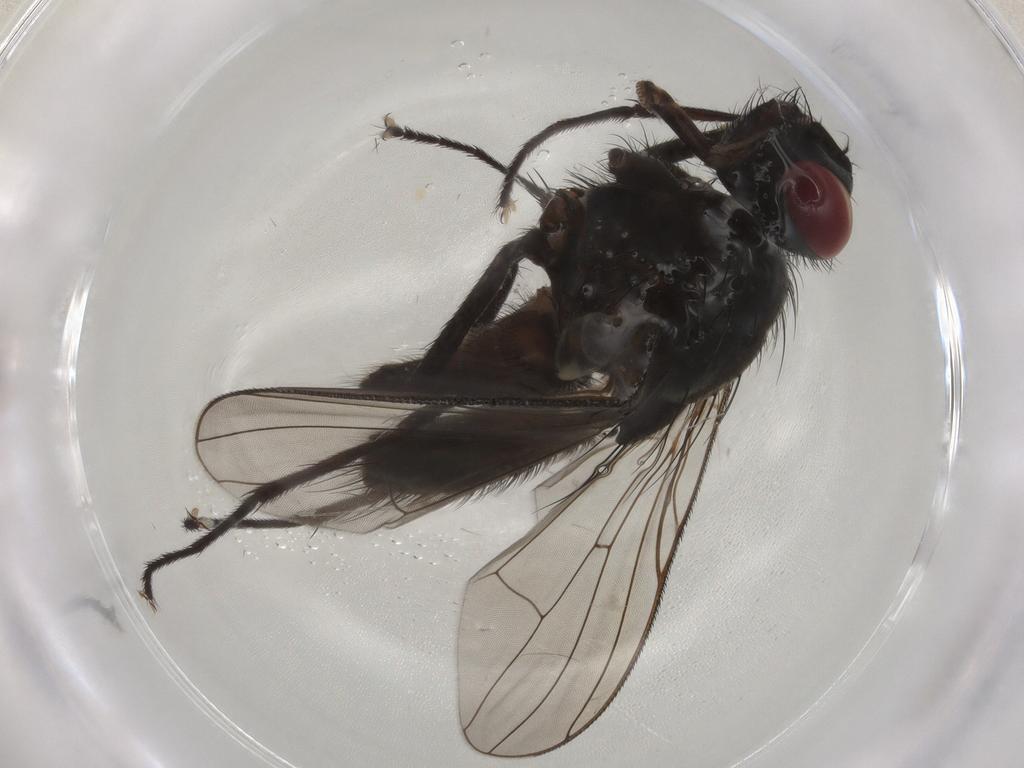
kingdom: Animalia
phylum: Arthropoda
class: Insecta
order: Diptera
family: Muscidae
